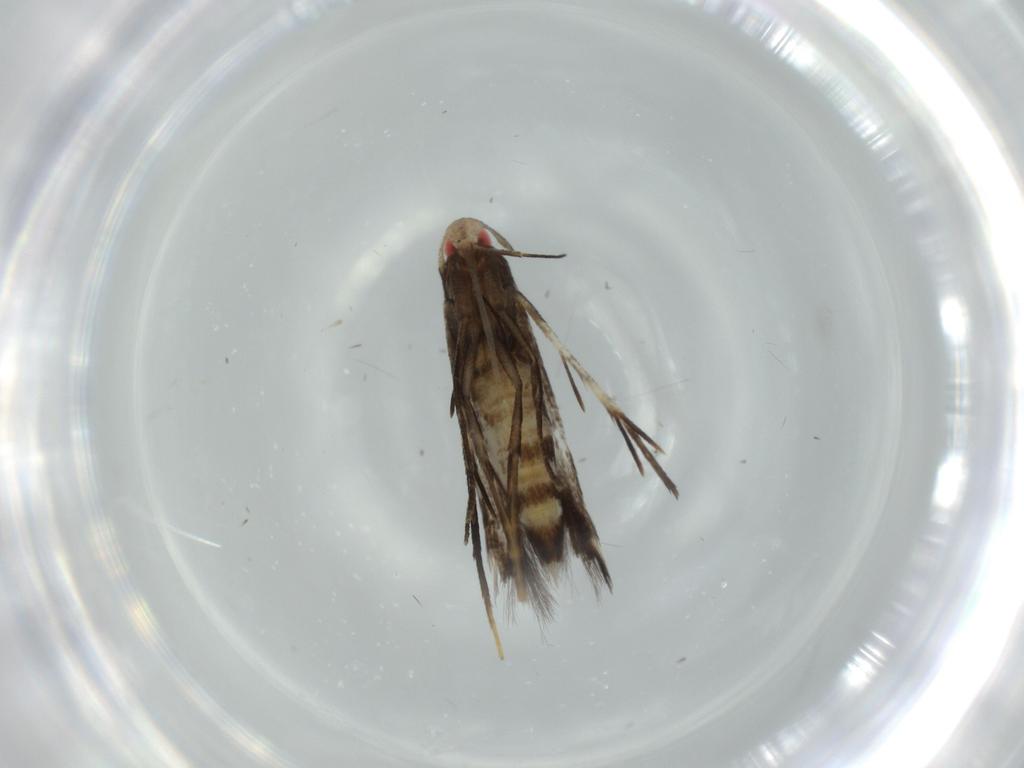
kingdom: Animalia
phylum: Arthropoda
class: Insecta
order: Lepidoptera
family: Cosmopterigidae
